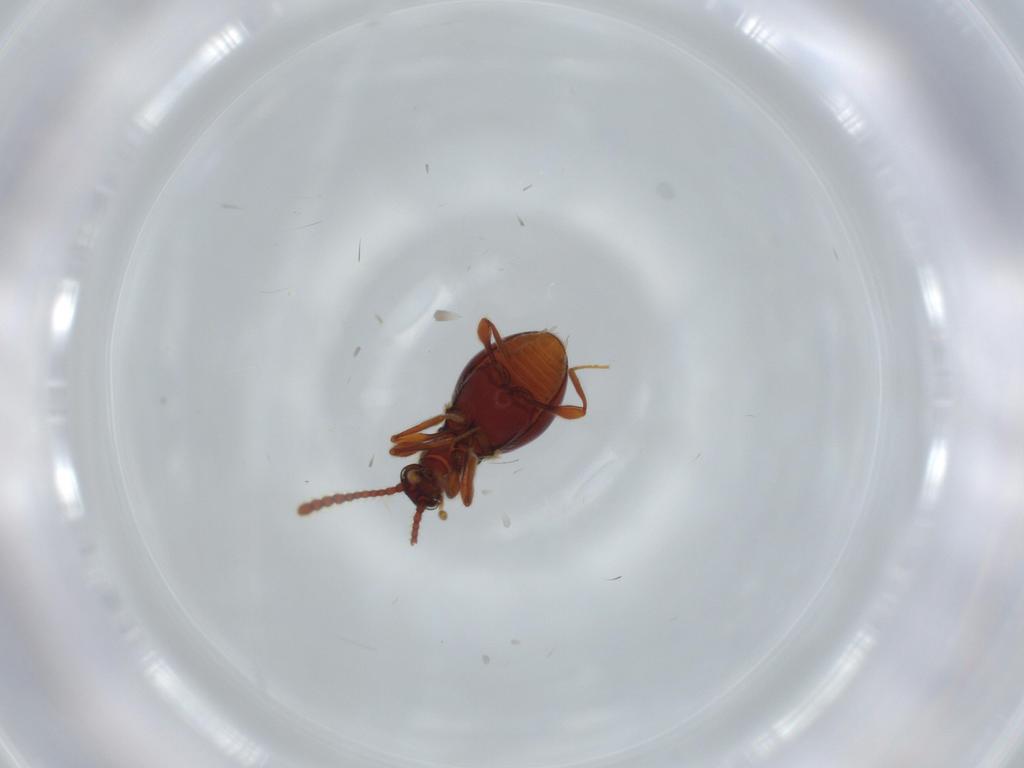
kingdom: Animalia
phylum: Arthropoda
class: Insecta
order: Coleoptera
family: Staphylinidae
